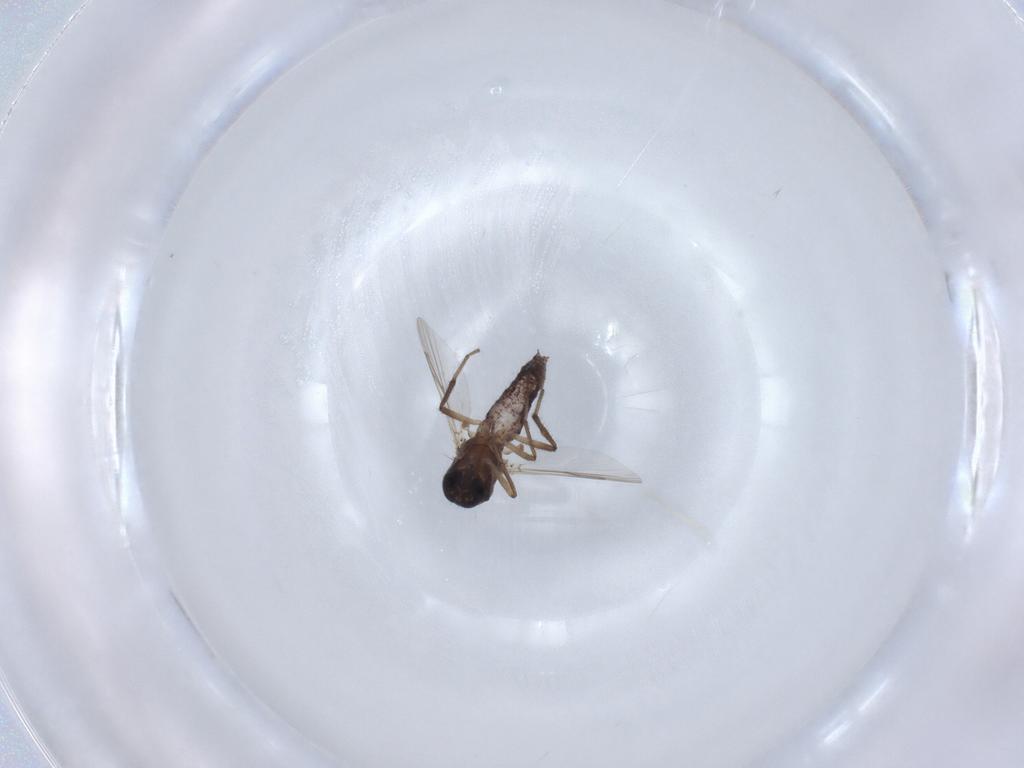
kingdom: Animalia
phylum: Arthropoda
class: Insecta
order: Diptera
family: Ceratopogonidae
